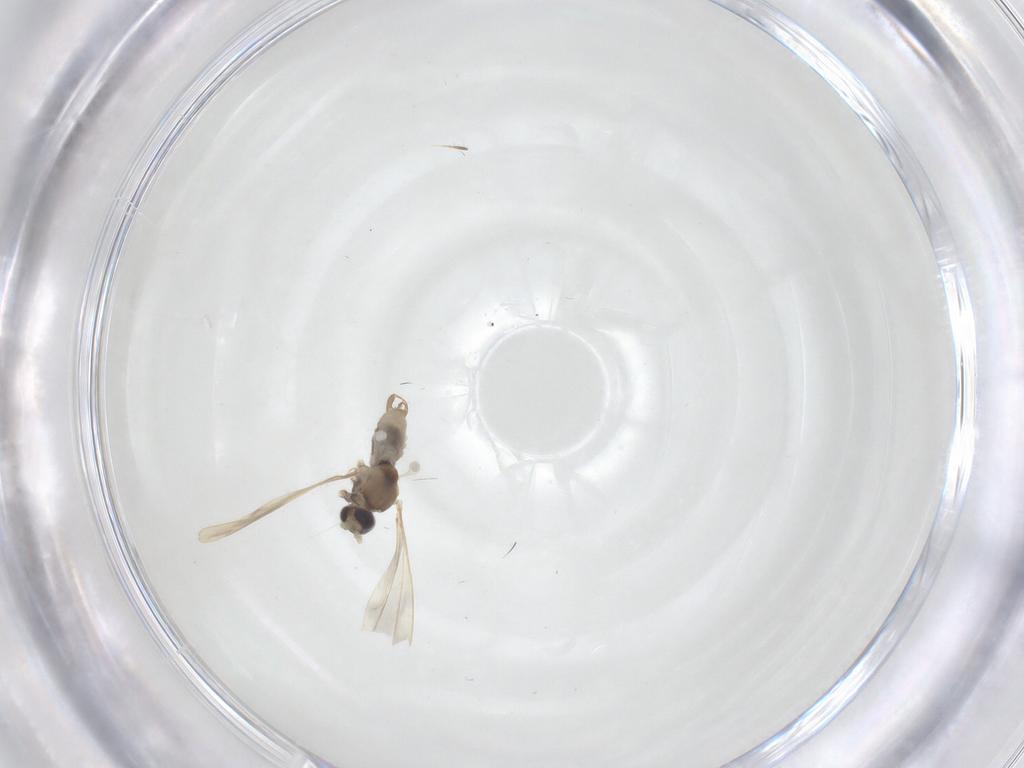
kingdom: Animalia
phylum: Arthropoda
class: Insecta
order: Diptera
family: Cecidomyiidae
